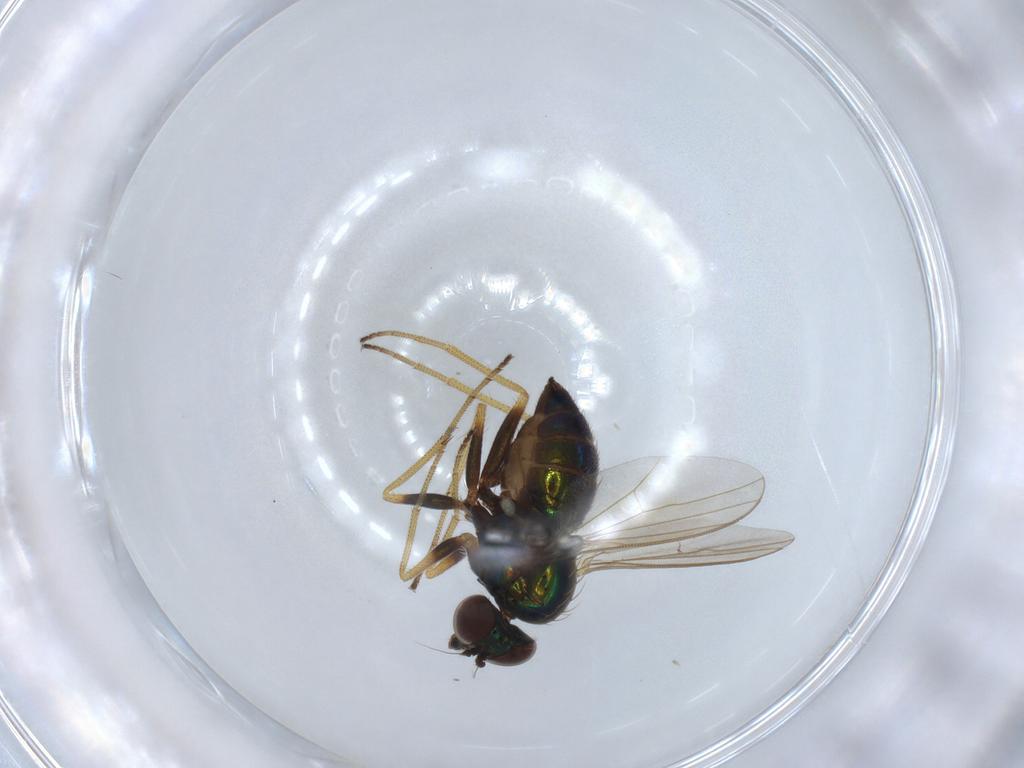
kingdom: Animalia
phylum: Arthropoda
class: Insecta
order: Diptera
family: Dolichopodidae
